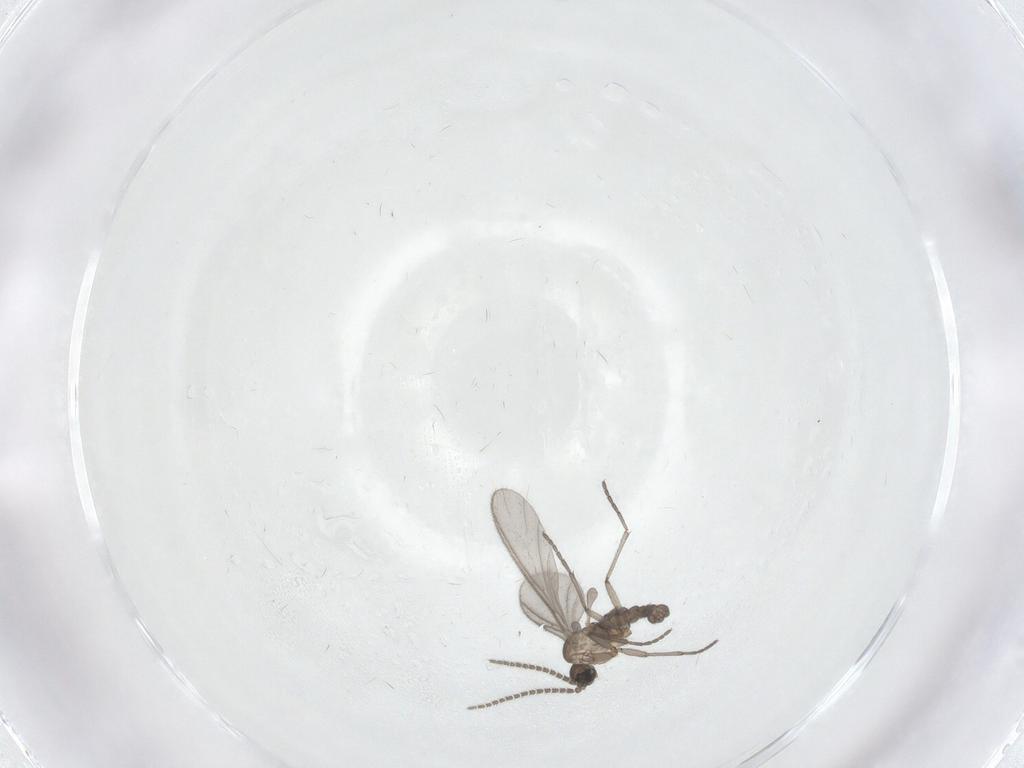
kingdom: Animalia
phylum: Arthropoda
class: Insecta
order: Diptera
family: Sciaridae
